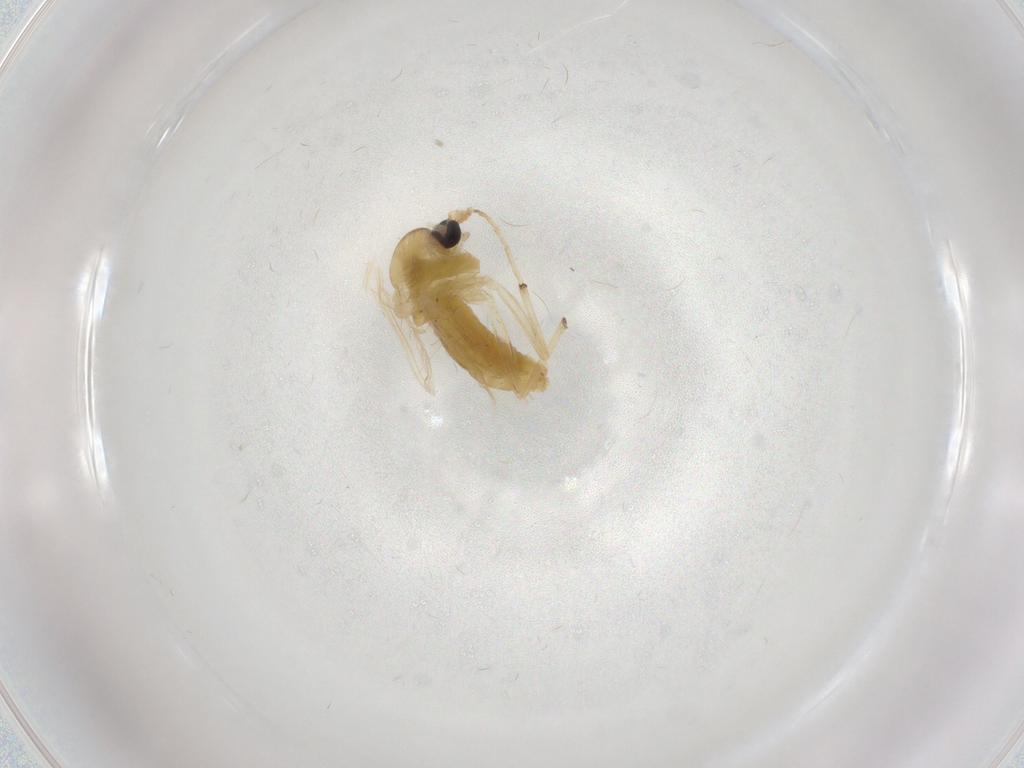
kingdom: Animalia
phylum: Arthropoda
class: Insecta
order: Diptera
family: Chironomidae
